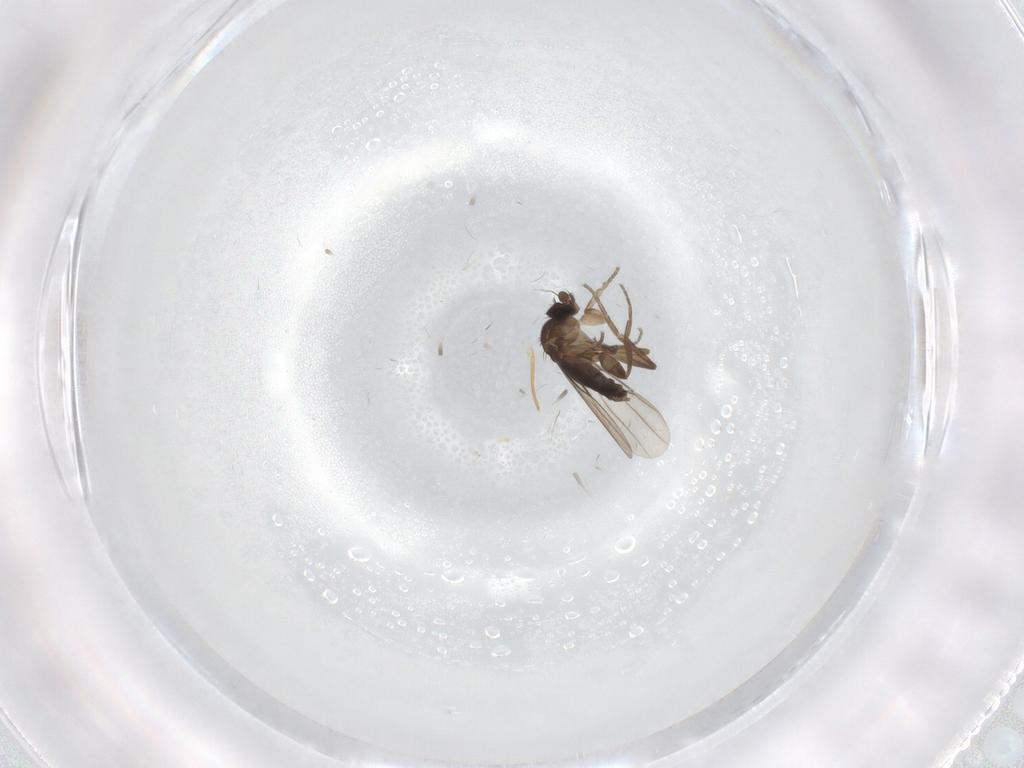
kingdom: Animalia
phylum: Arthropoda
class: Insecta
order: Diptera
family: Phoridae
